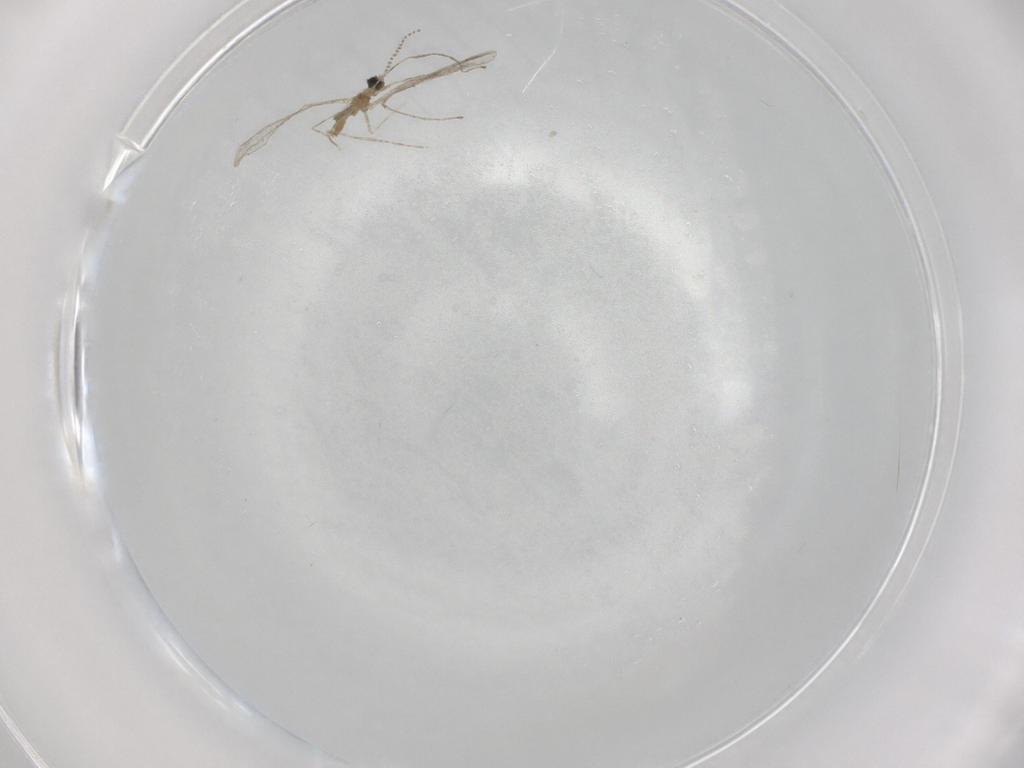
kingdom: Animalia
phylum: Arthropoda
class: Insecta
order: Diptera
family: Cecidomyiidae
